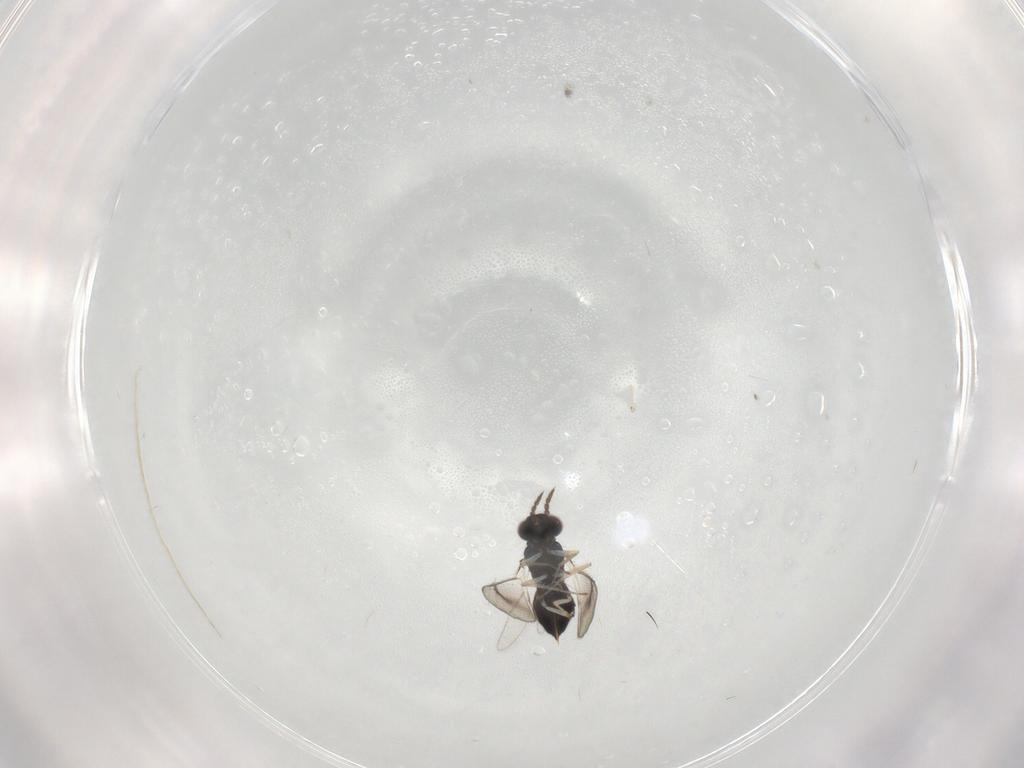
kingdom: Animalia
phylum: Arthropoda
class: Insecta
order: Hymenoptera
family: Eulophidae
